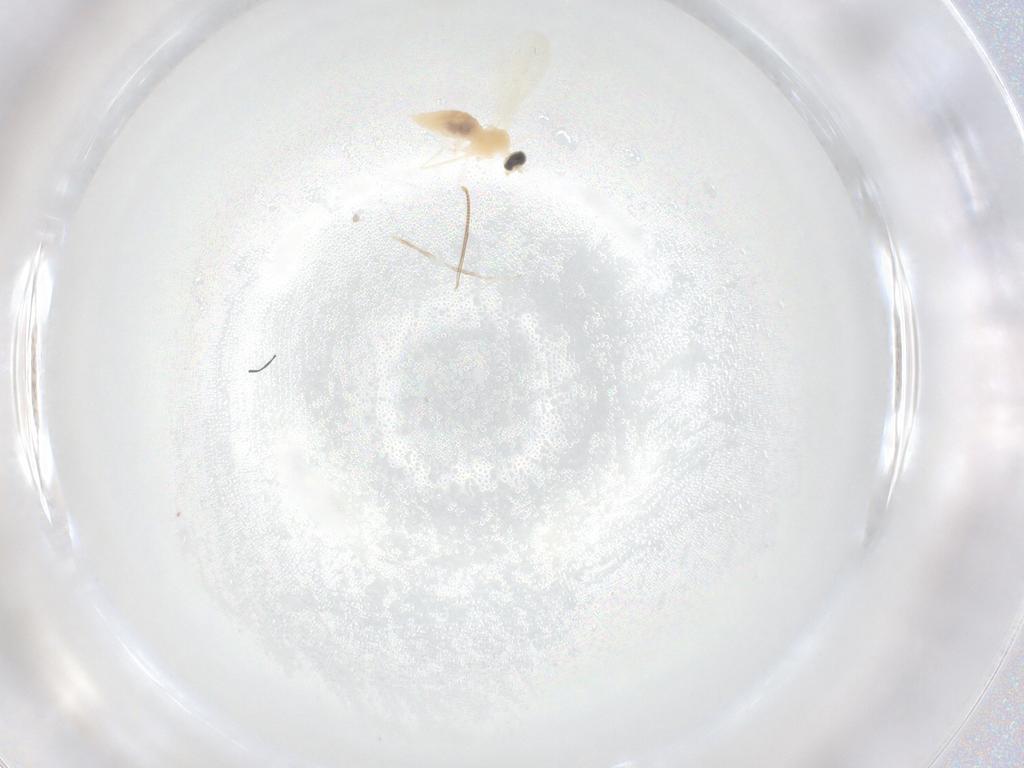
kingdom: Animalia
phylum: Arthropoda
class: Insecta
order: Diptera
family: Cecidomyiidae
